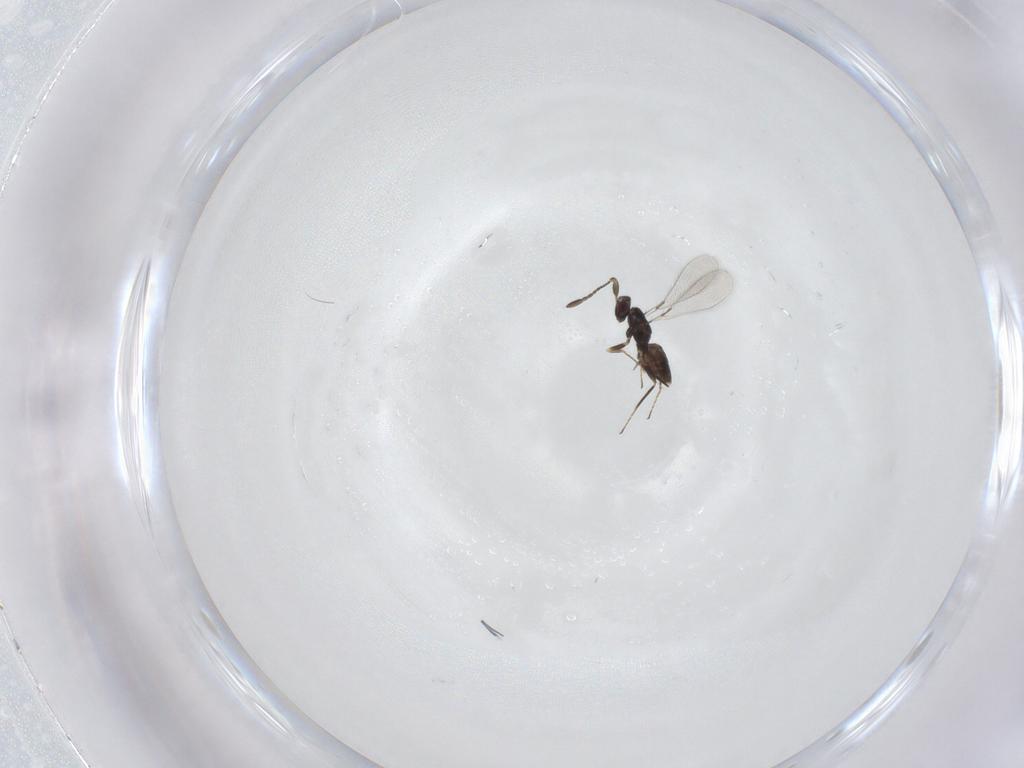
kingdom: Animalia
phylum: Arthropoda
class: Insecta
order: Hymenoptera
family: Mymaridae
